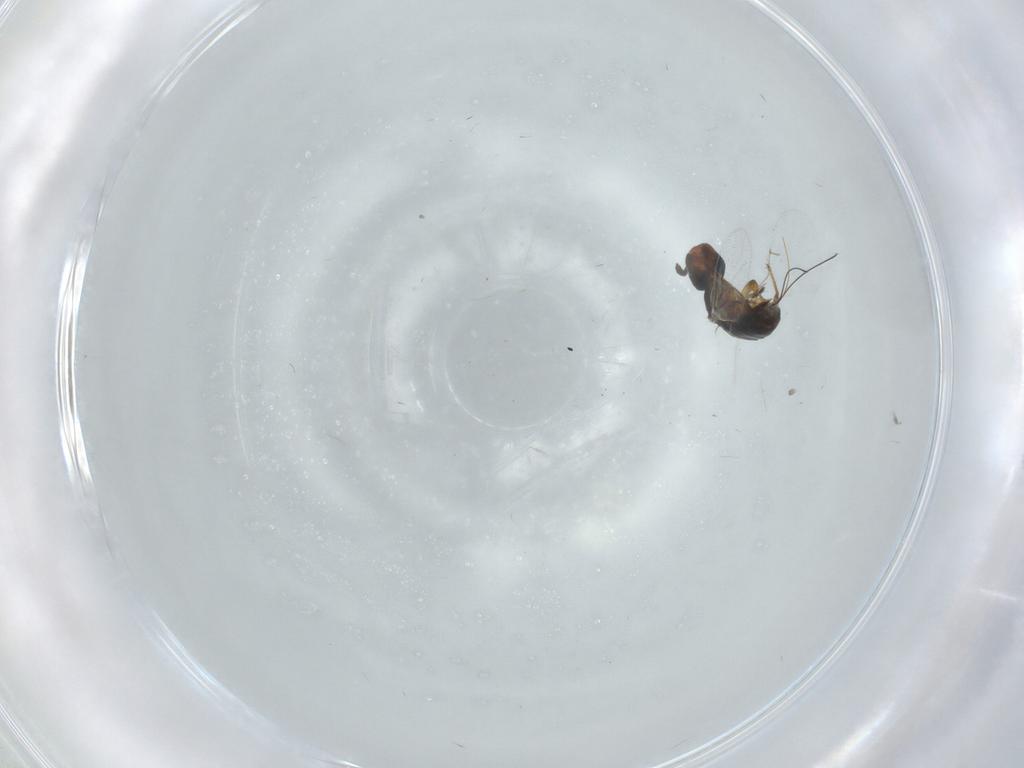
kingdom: Animalia
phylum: Arthropoda
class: Insecta
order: Hymenoptera
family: Agaonidae
